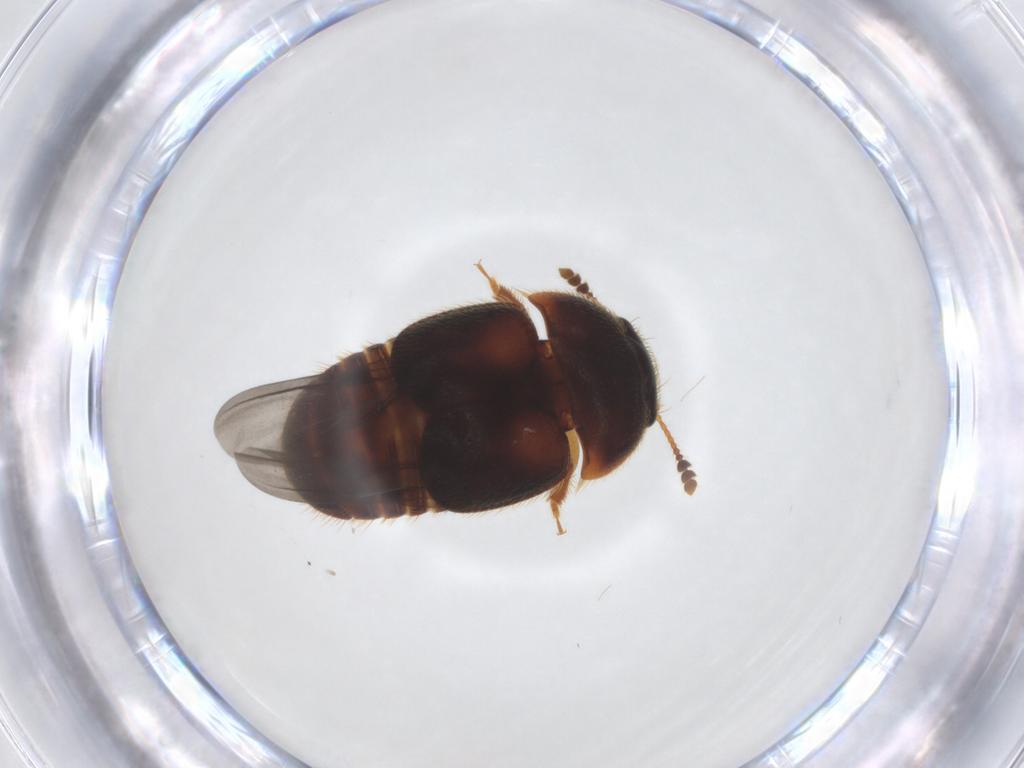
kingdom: Animalia
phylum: Arthropoda
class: Insecta
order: Coleoptera
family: Nitidulidae
